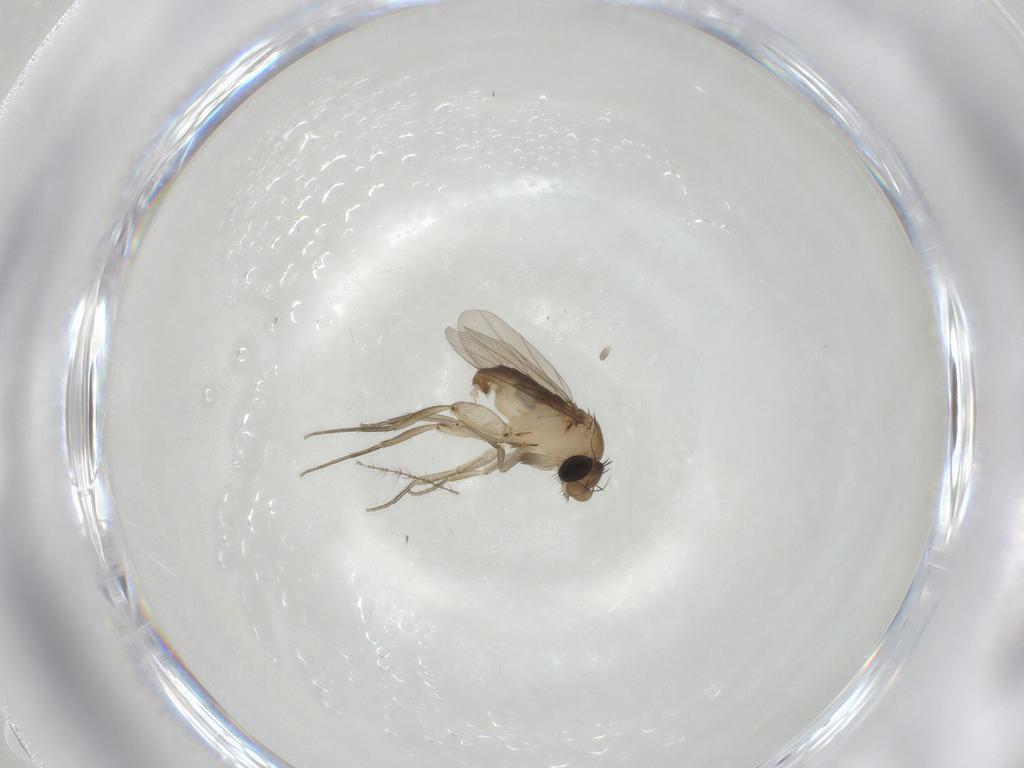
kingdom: Animalia
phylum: Arthropoda
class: Insecta
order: Diptera
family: Phoridae
